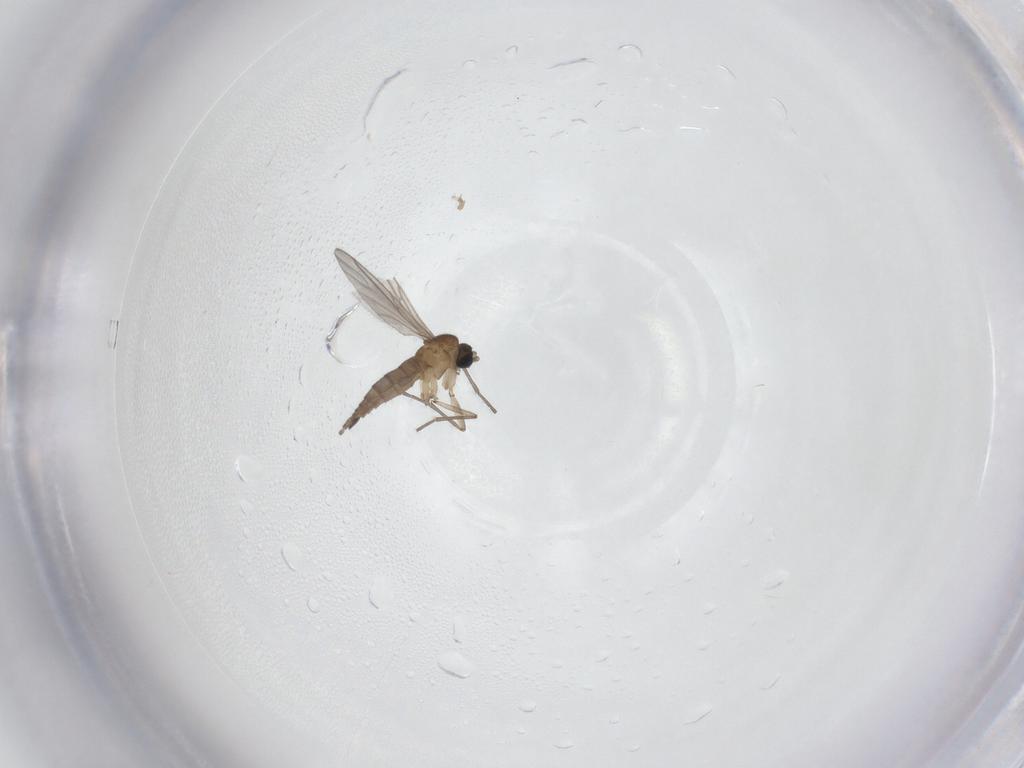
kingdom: Animalia
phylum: Arthropoda
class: Insecta
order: Diptera
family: Sciaridae
